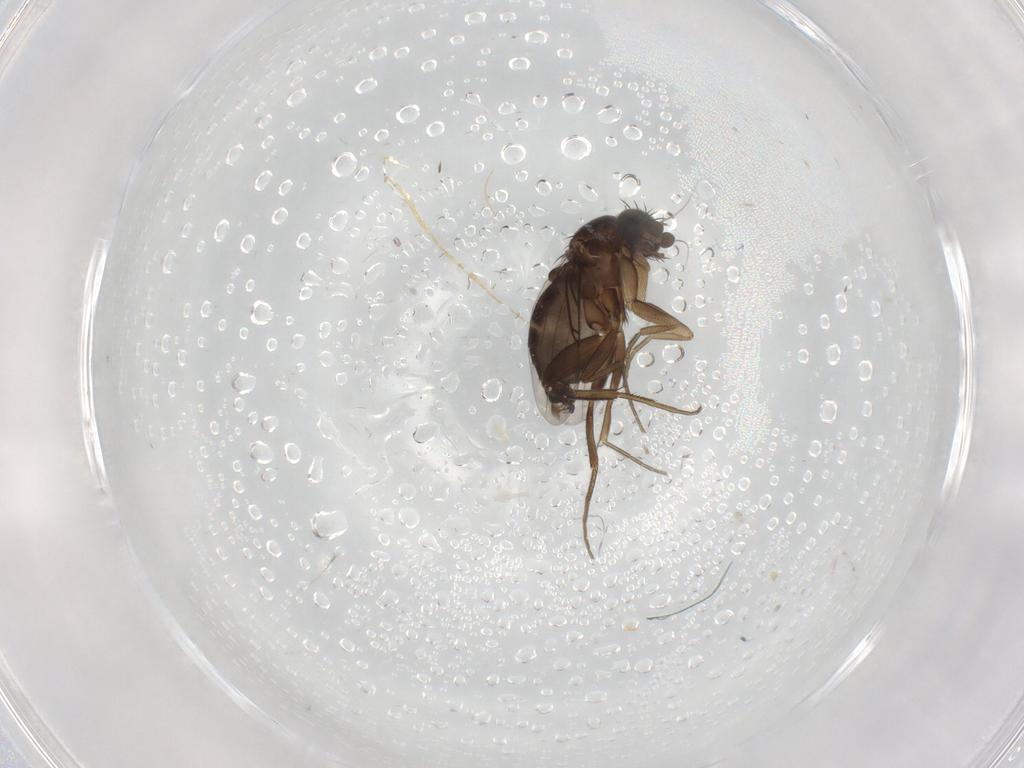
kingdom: Animalia
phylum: Arthropoda
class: Insecta
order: Diptera
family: Phoridae
